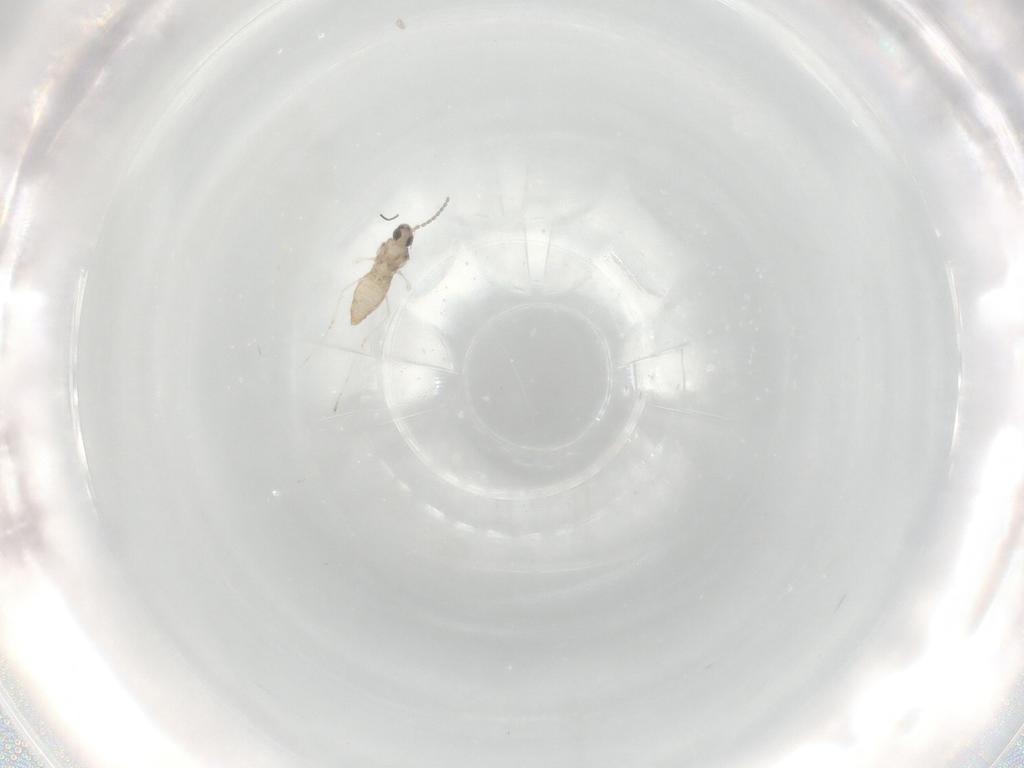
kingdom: Animalia
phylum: Arthropoda
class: Insecta
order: Diptera
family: Cecidomyiidae
